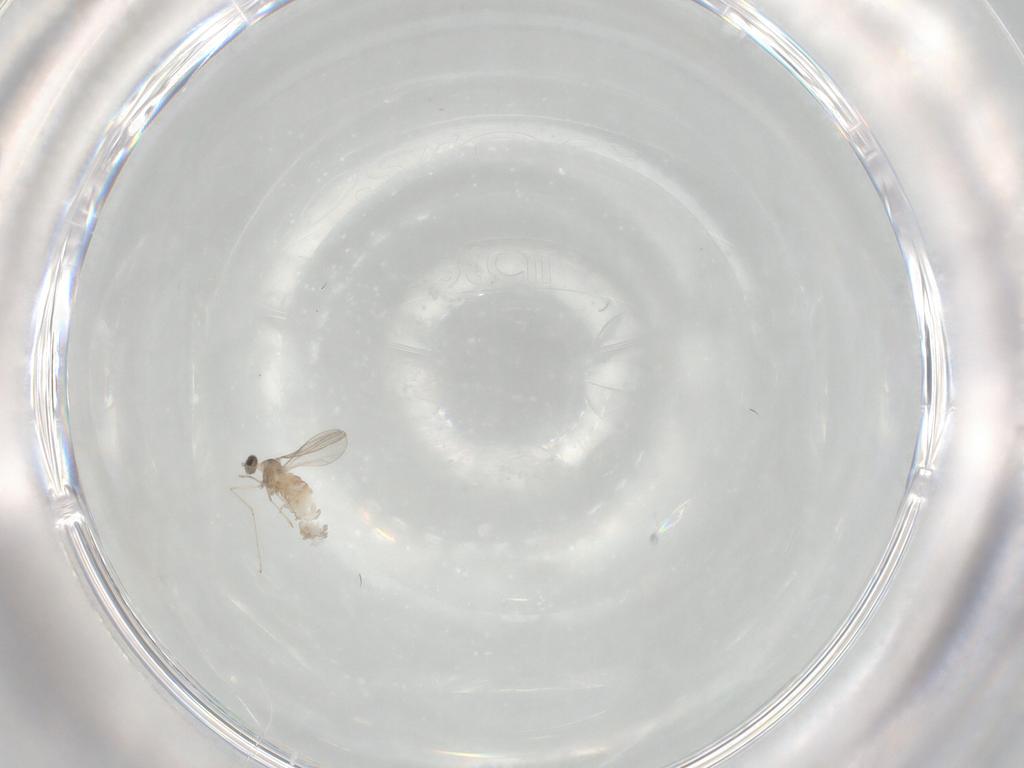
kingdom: Animalia
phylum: Arthropoda
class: Insecta
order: Diptera
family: Cecidomyiidae
